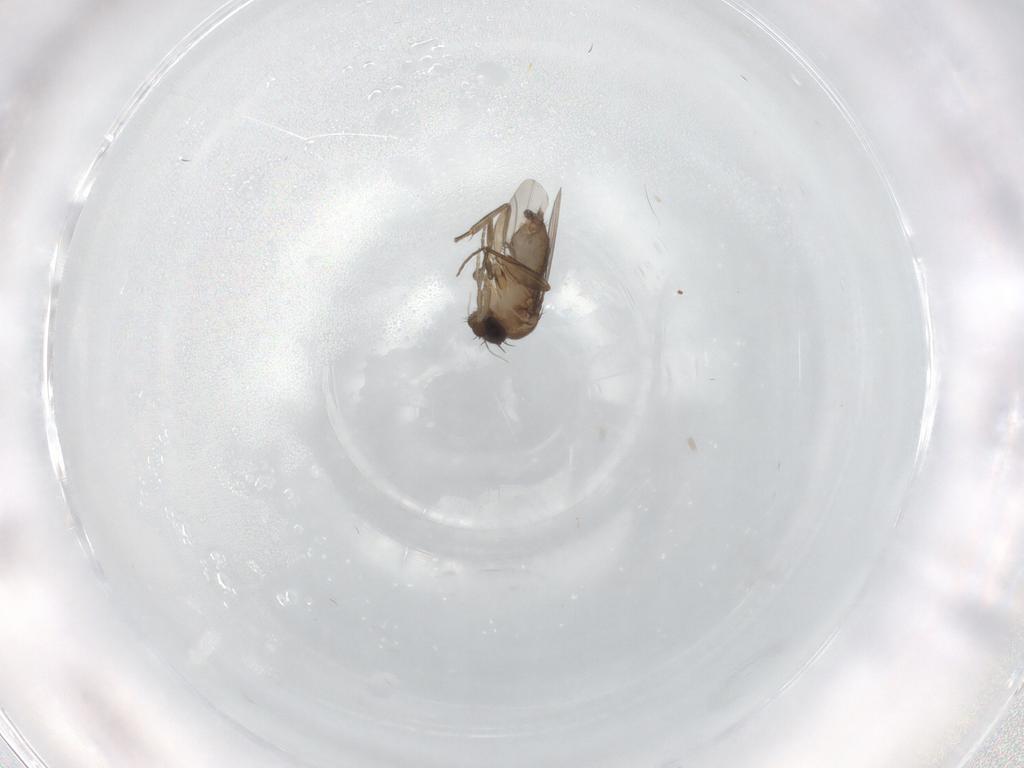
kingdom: Animalia
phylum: Arthropoda
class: Insecta
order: Diptera
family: Phoridae
